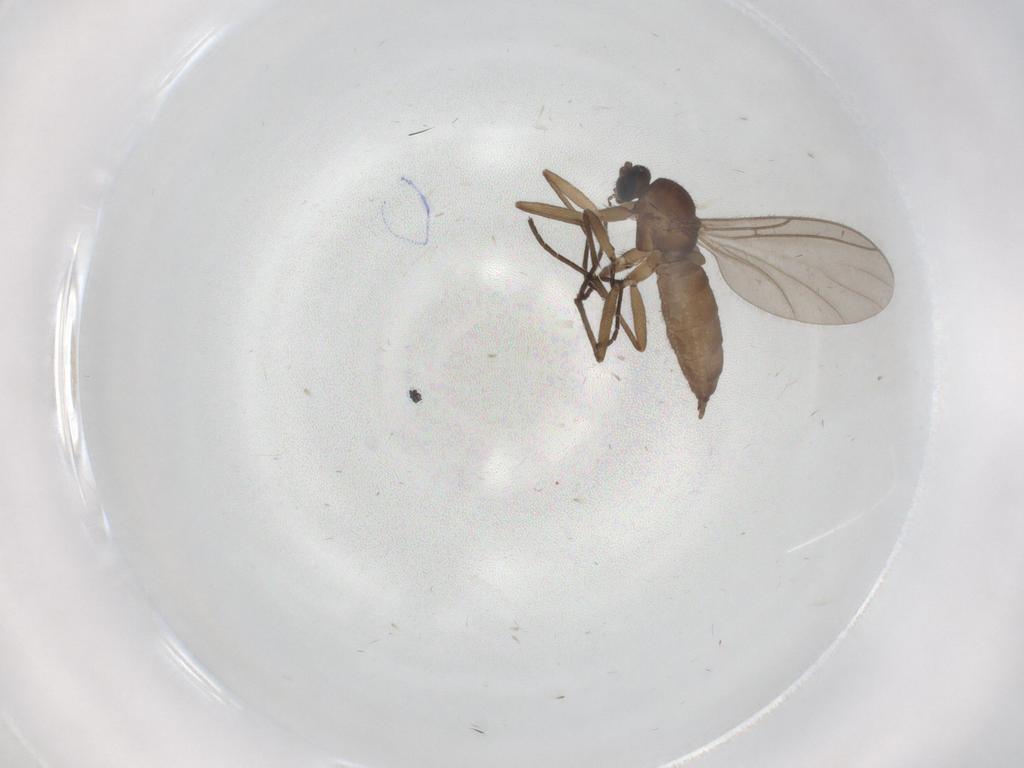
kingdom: Animalia
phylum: Arthropoda
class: Insecta
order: Diptera
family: Sciaridae
